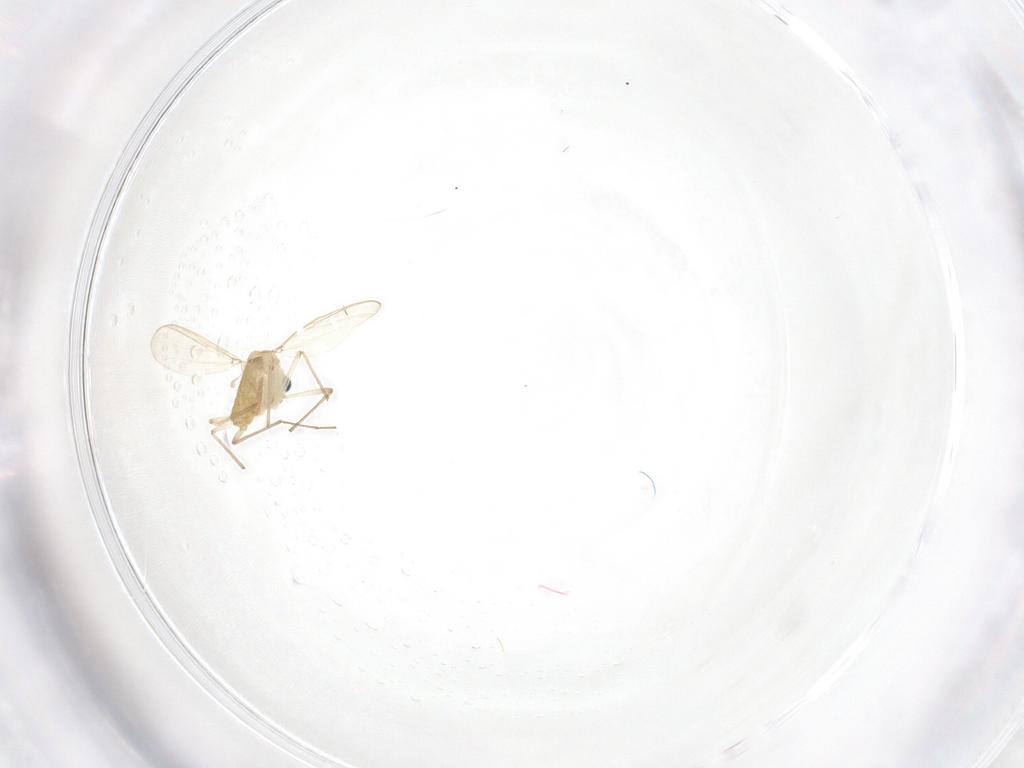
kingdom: Animalia
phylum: Arthropoda
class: Insecta
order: Diptera
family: Chironomidae
